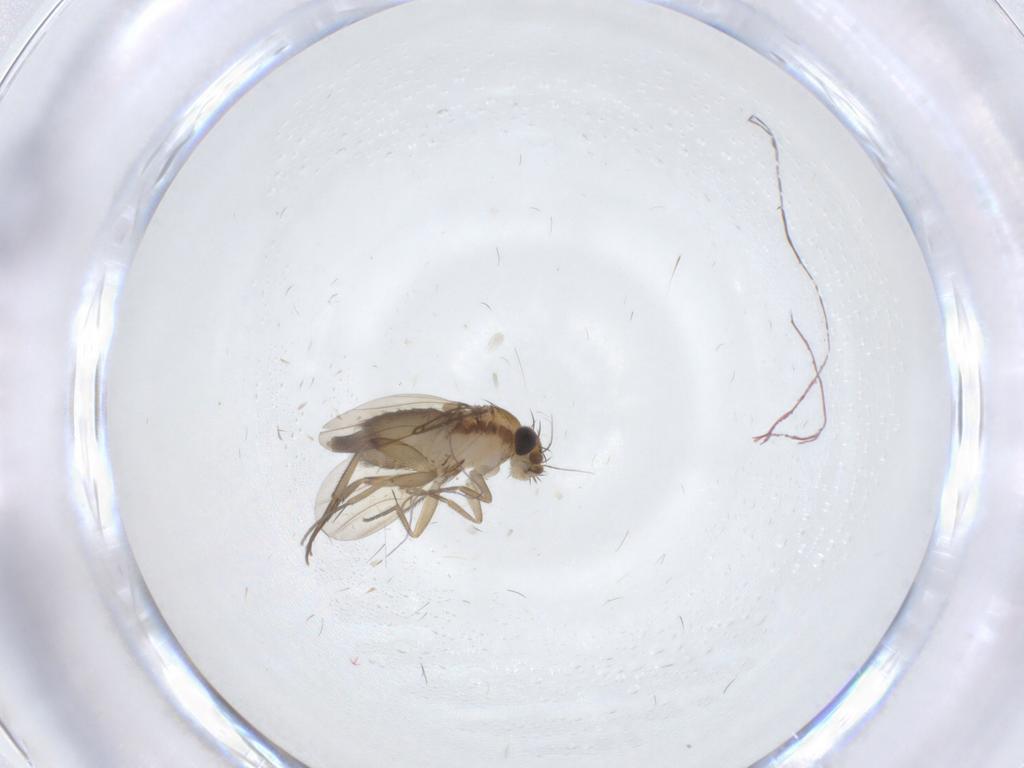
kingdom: Animalia
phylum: Arthropoda
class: Insecta
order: Diptera
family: Phoridae
